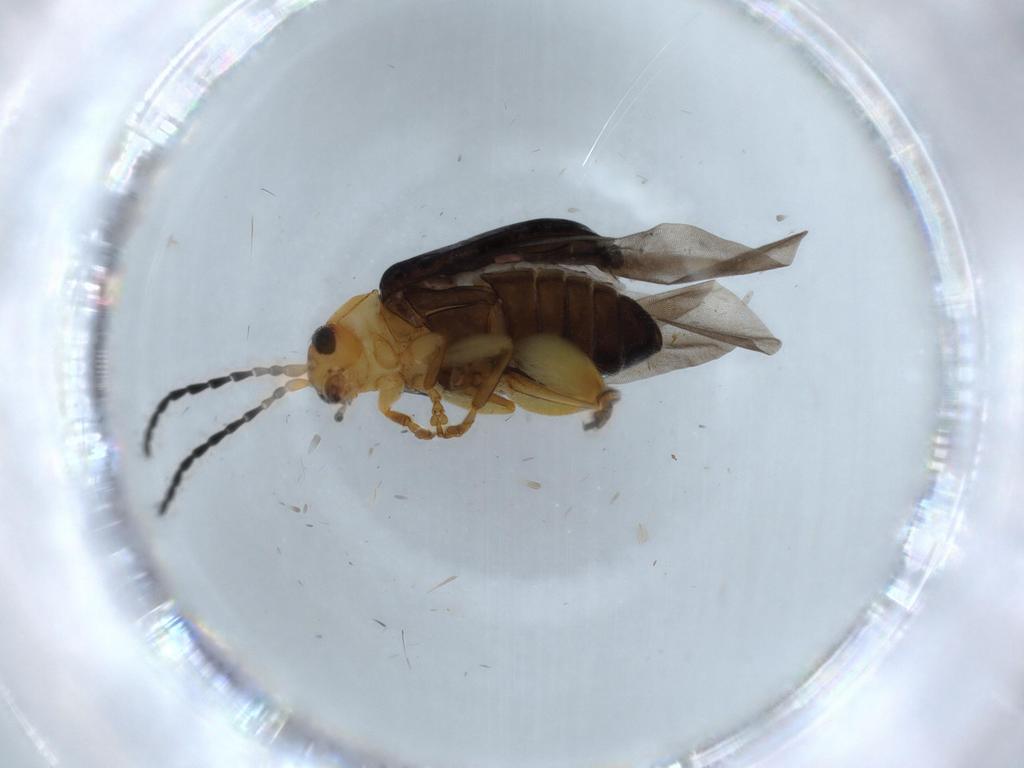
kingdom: Animalia
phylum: Arthropoda
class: Insecta
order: Coleoptera
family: Chrysomelidae
